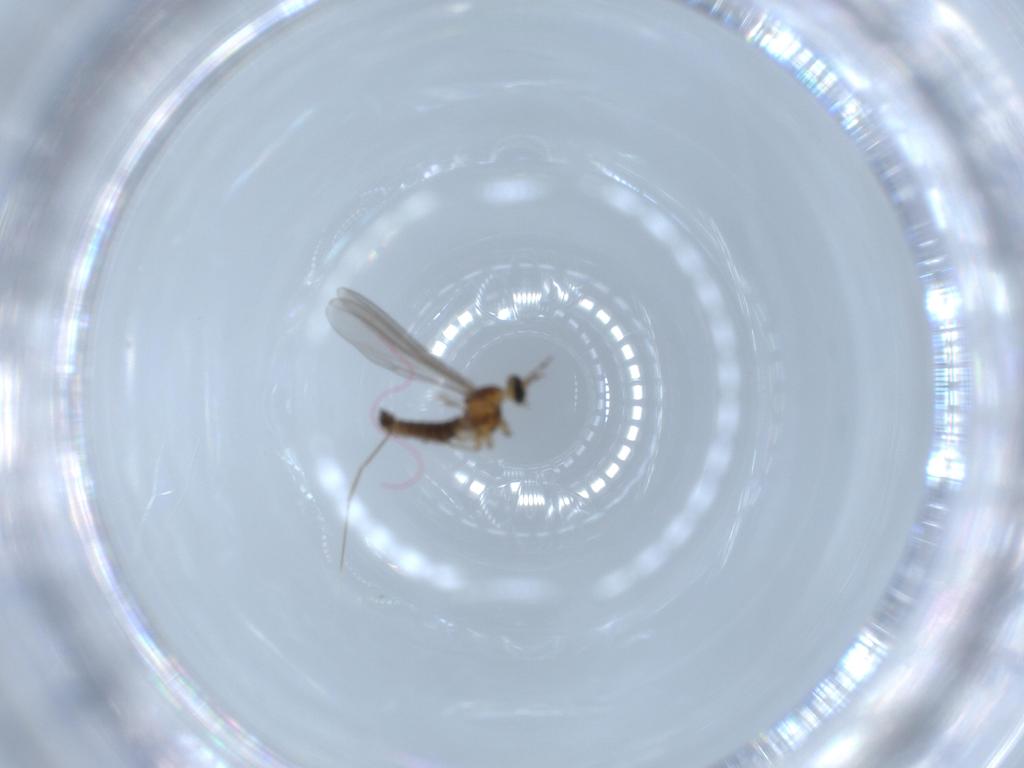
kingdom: Animalia
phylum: Arthropoda
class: Insecta
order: Diptera
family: Cecidomyiidae
